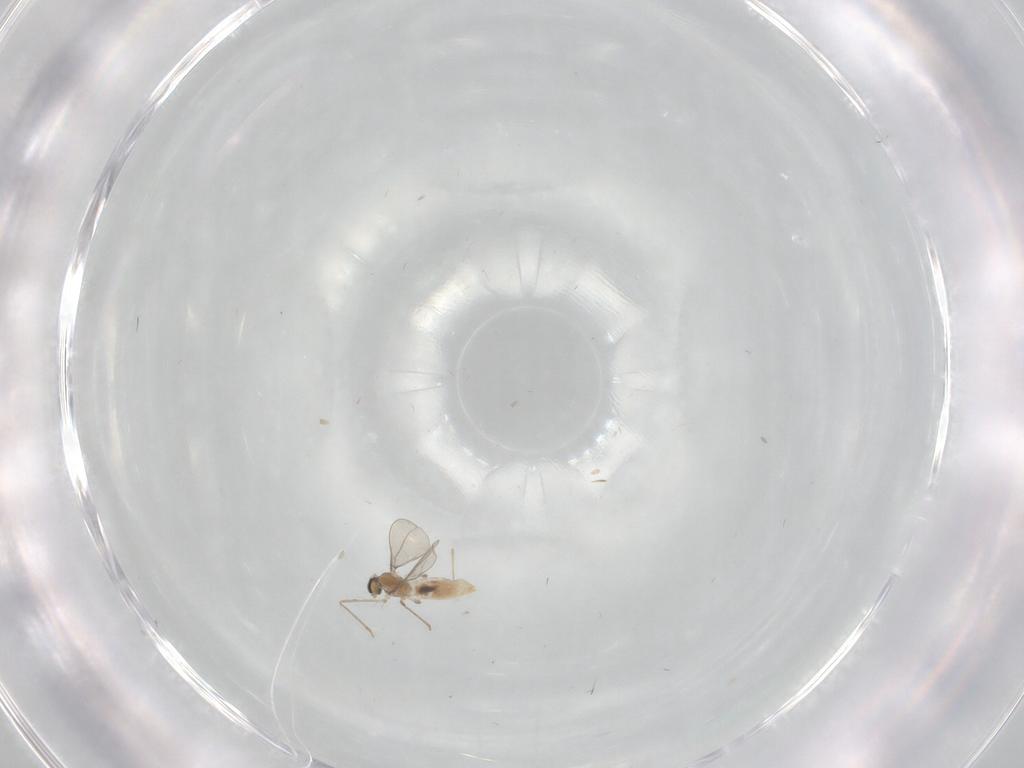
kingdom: Animalia
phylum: Arthropoda
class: Insecta
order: Diptera
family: Cecidomyiidae
